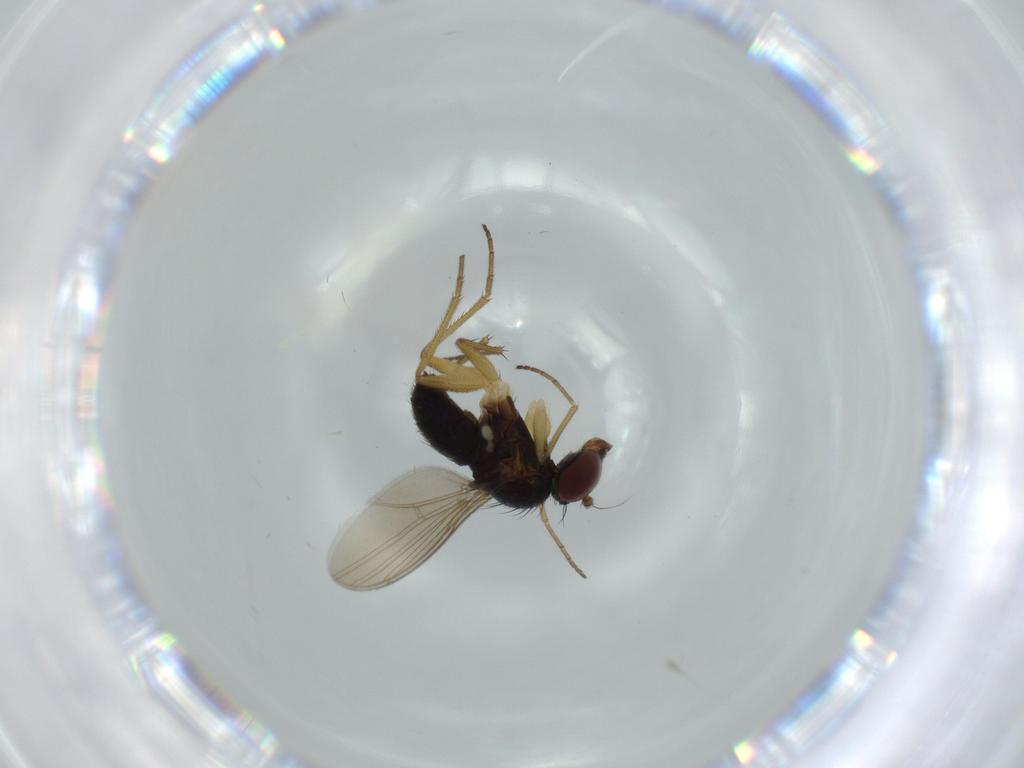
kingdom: Animalia
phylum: Arthropoda
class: Insecta
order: Diptera
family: Dolichopodidae
